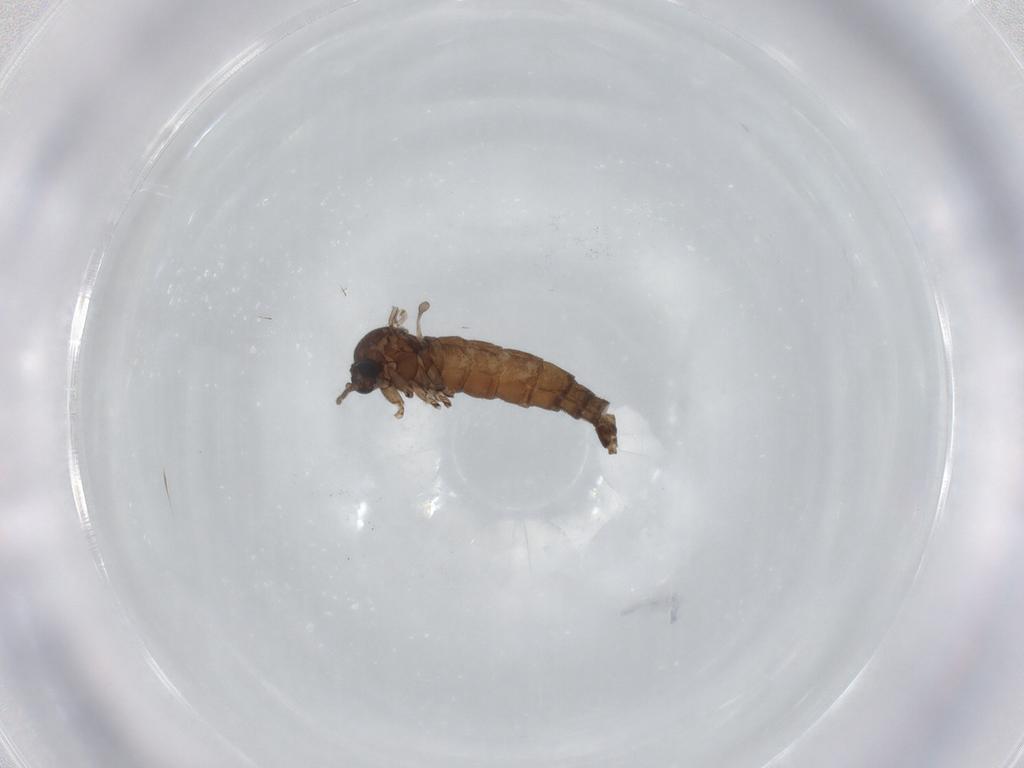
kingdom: Animalia
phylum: Arthropoda
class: Insecta
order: Diptera
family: Sciaridae
